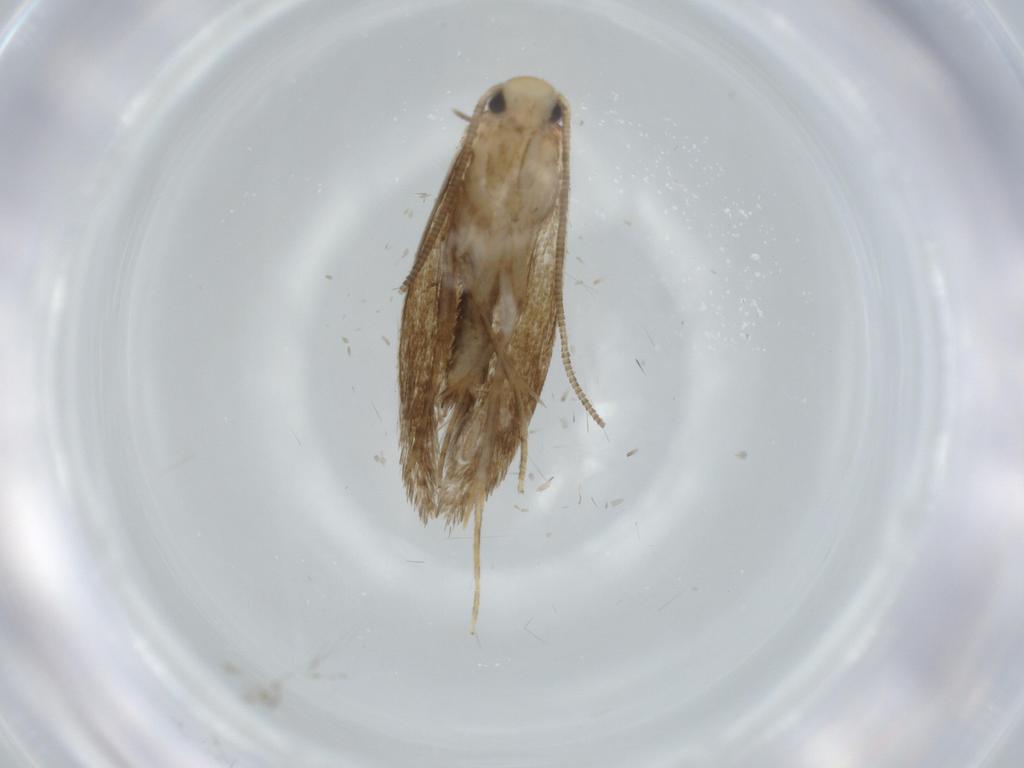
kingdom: Animalia
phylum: Arthropoda
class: Insecta
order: Lepidoptera
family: Tineidae
